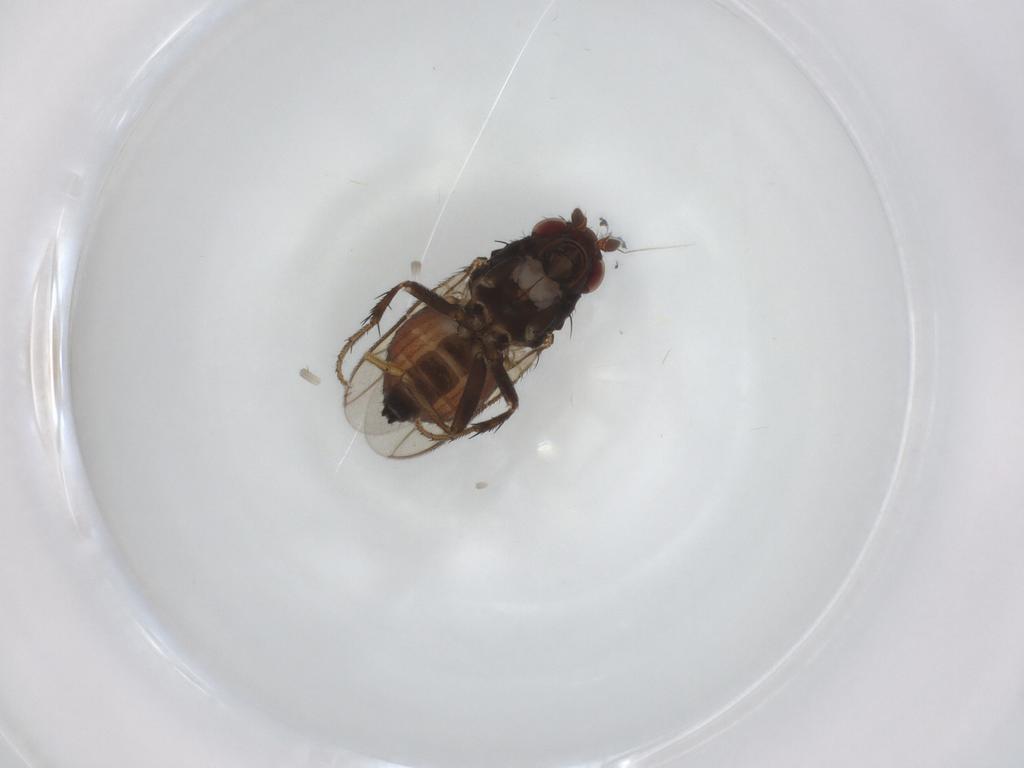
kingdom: Animalia
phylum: Arthropoda
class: Insecta
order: Diptera
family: Sphaeroceridae
